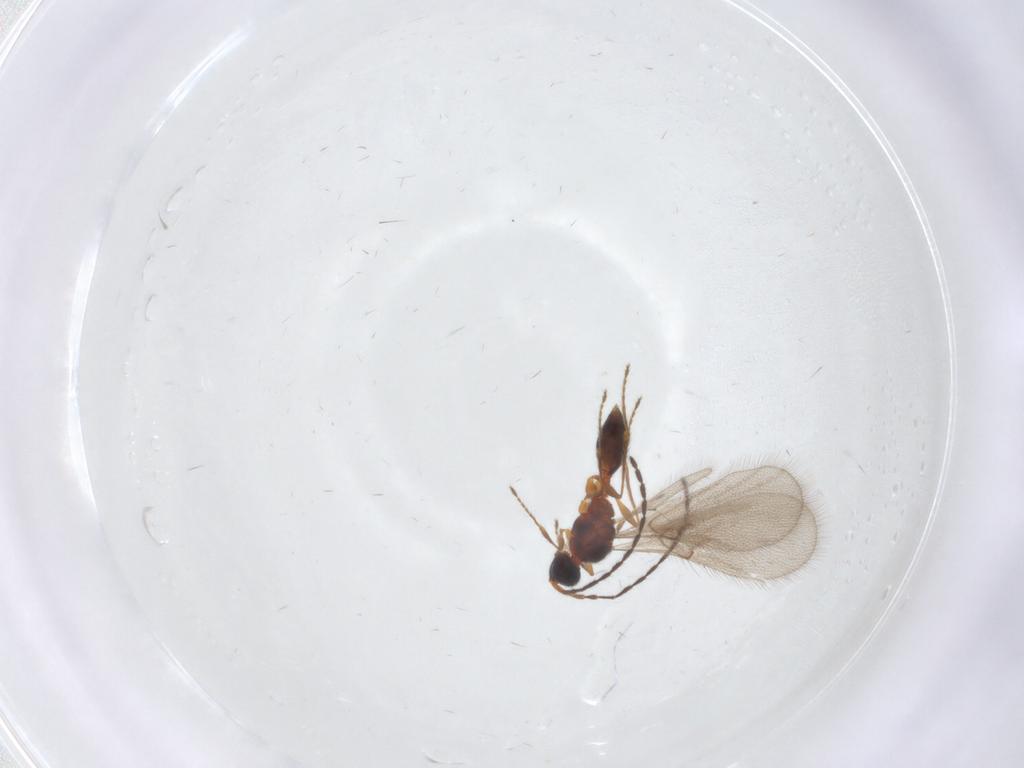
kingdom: Animalia
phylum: Arthropoda
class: Insecta
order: Hymenoptera
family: Diapriidae
